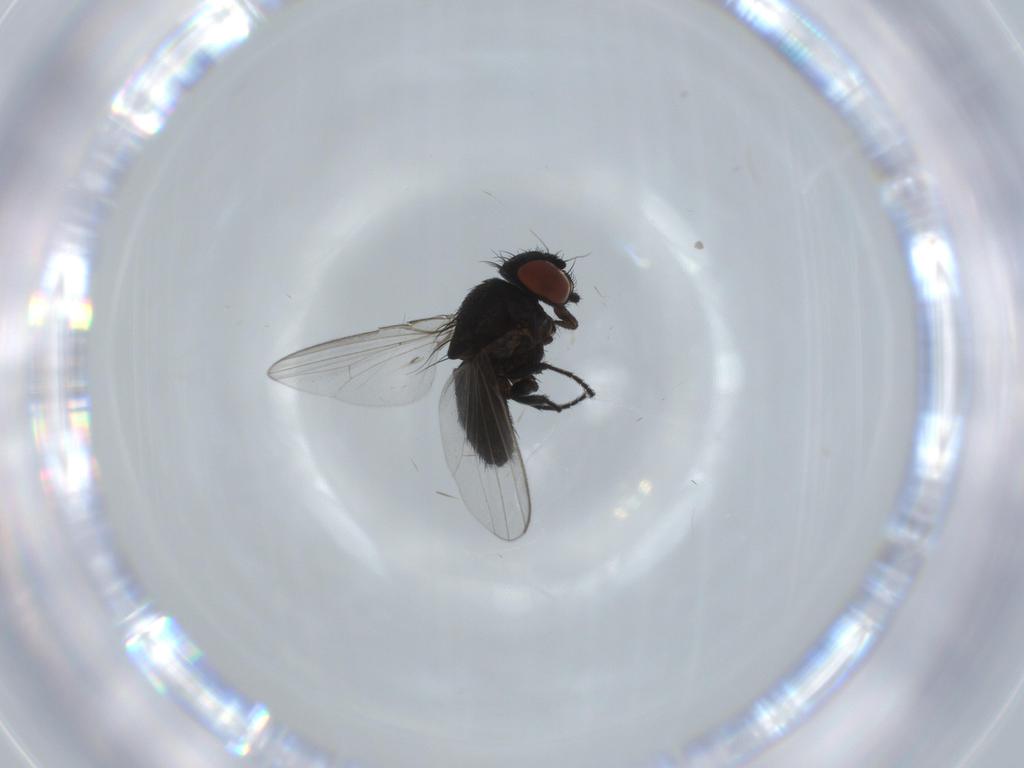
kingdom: Animalia
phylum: Arthropoda
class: Insecta
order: Diptera
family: Milichiidae
